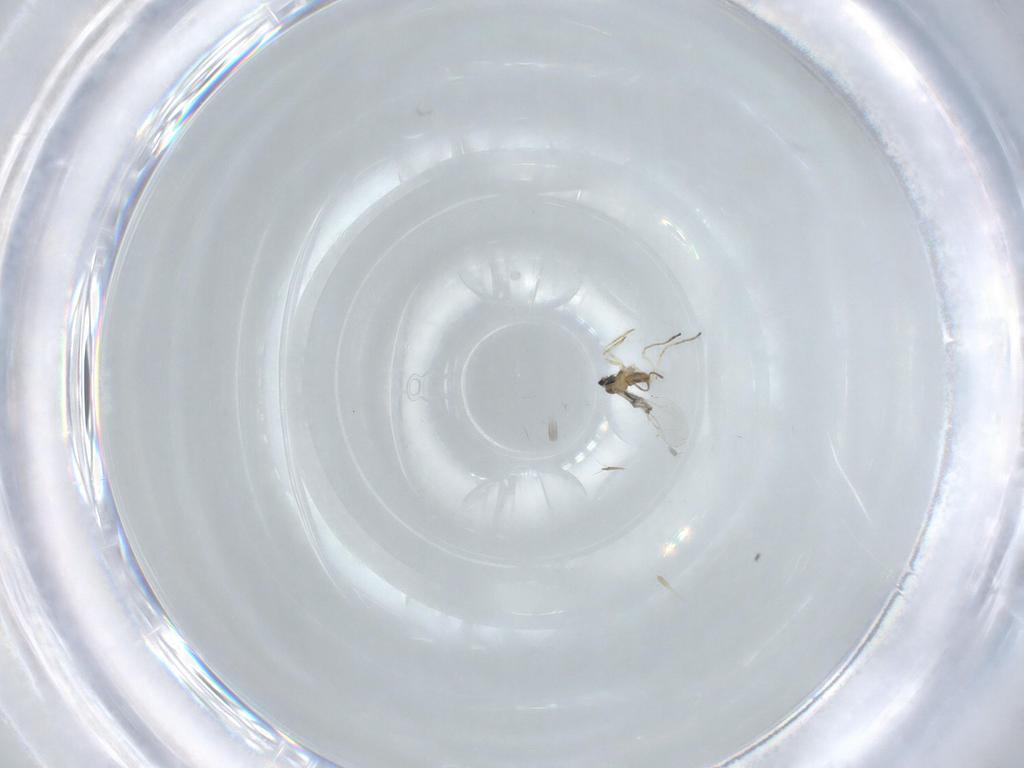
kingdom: Animalia
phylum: Arthropoda
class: Insecta
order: Diptera
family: Cecidomyiidae
